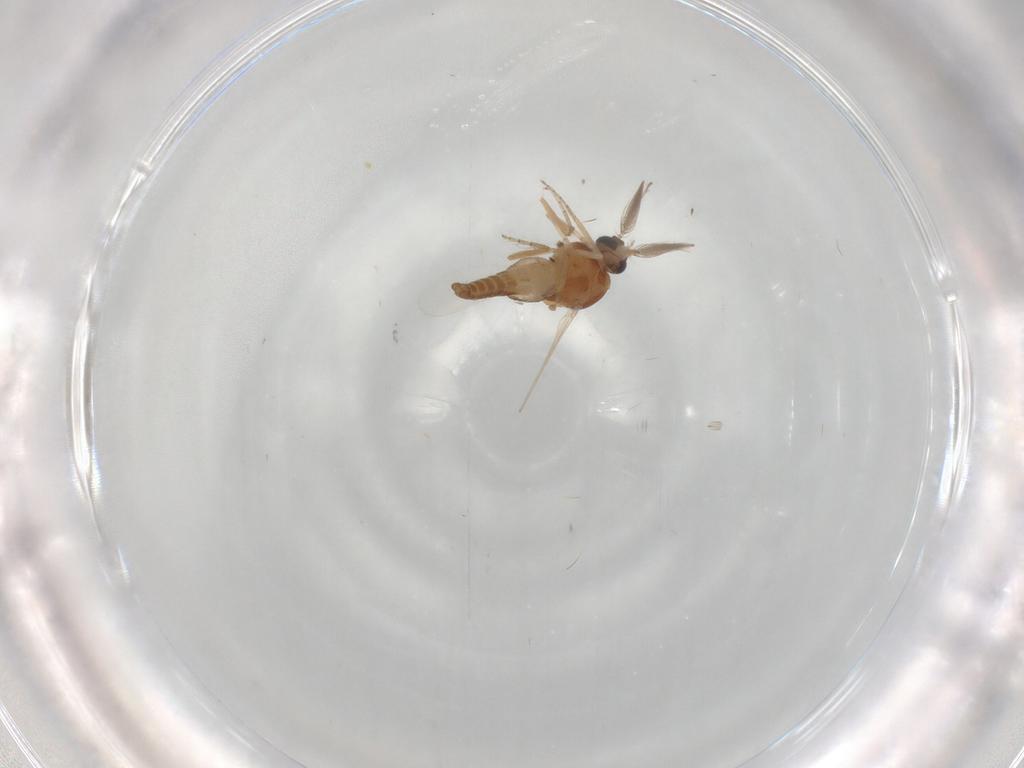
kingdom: Animalia
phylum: Arthropoda
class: Insecta
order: Diptera
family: Ceratopogonidae
